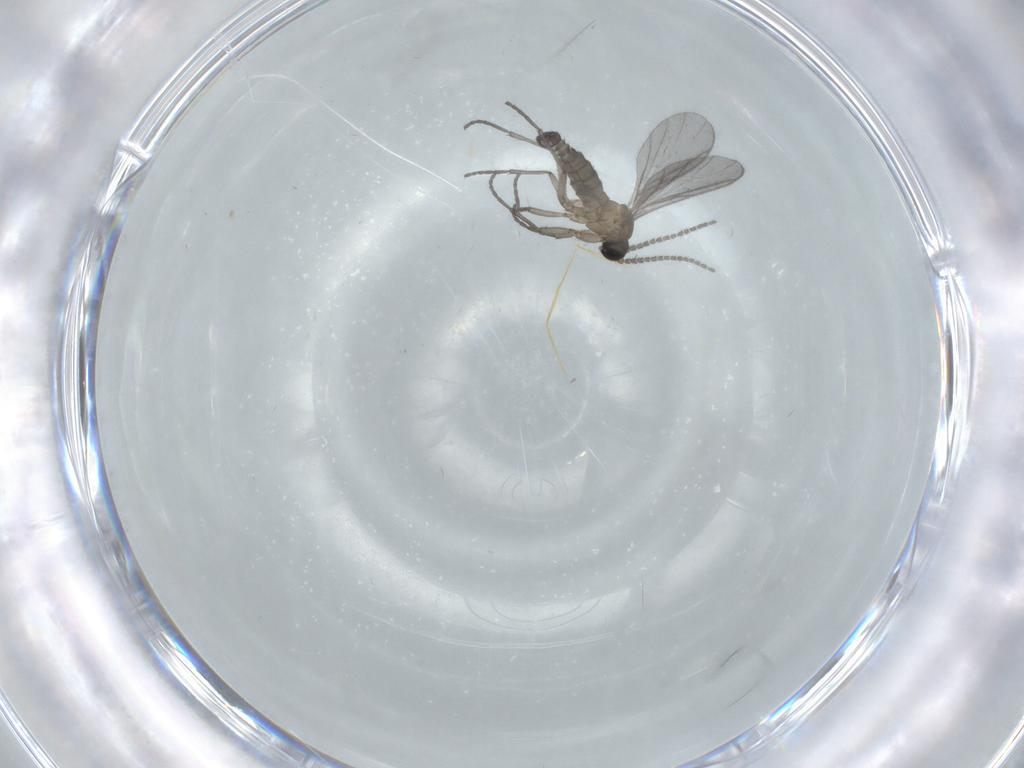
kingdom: Animalia
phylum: Arthropoda
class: Insecta
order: Diptera
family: Sciaridae
